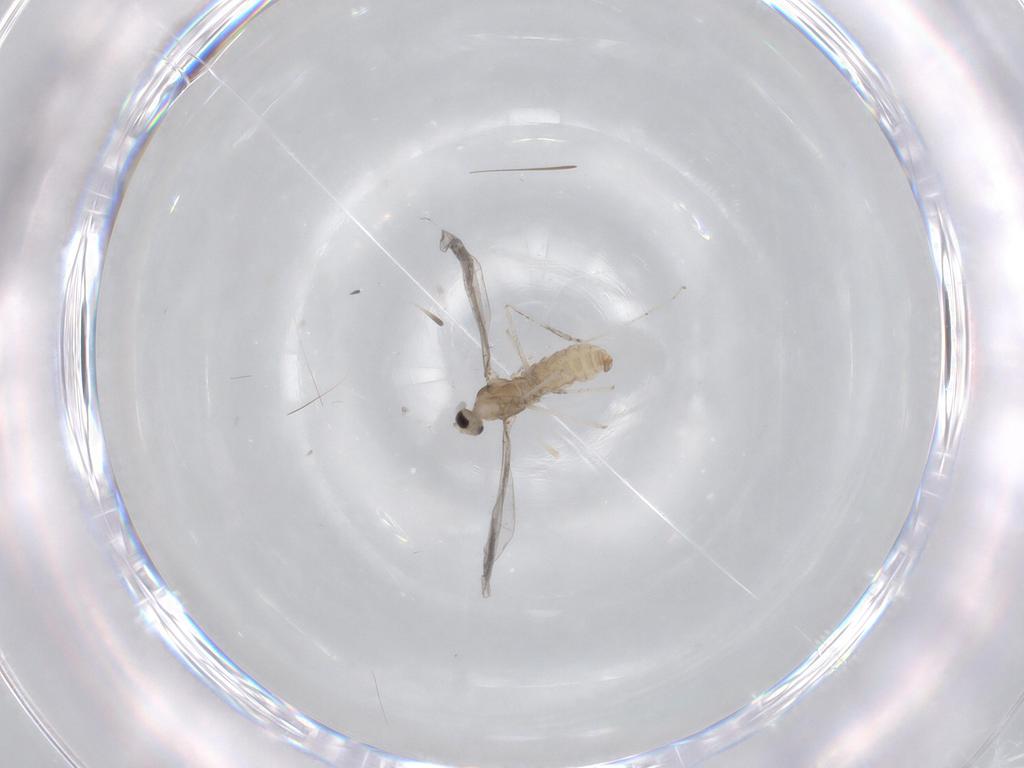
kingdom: Animalia
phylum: Arthropoda
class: Insecta
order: Diptera
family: Cecidomyiidae
